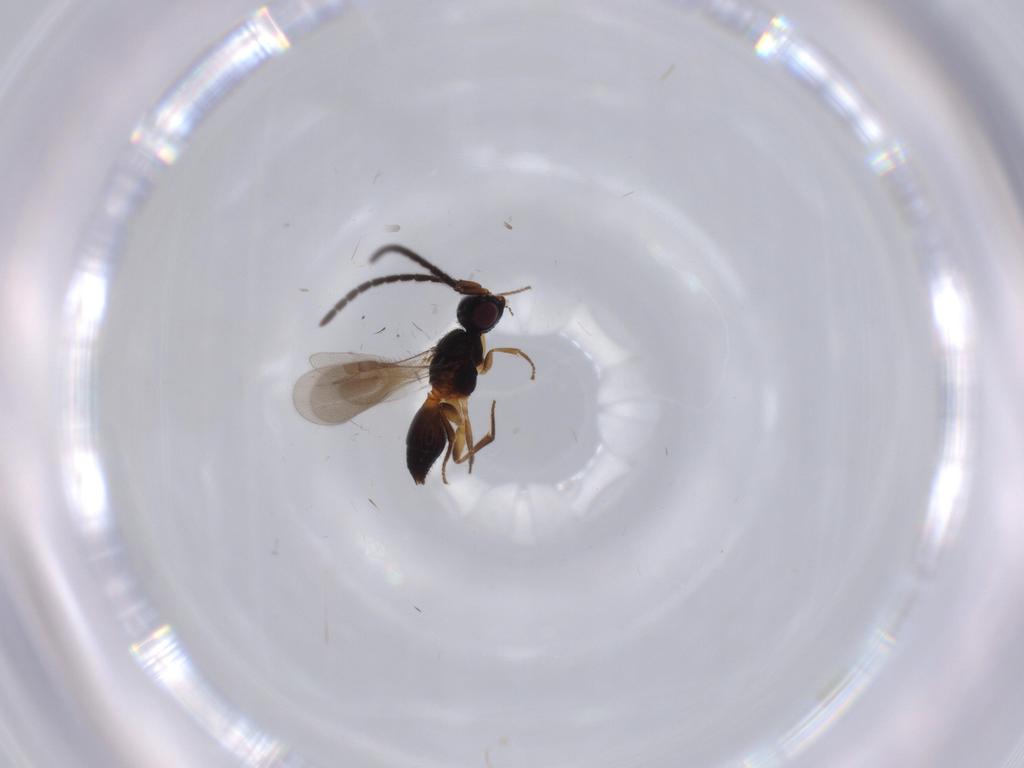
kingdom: Animalia
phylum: Arthropoda
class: Insecta
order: Hymenoptera
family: Megaspilidae
